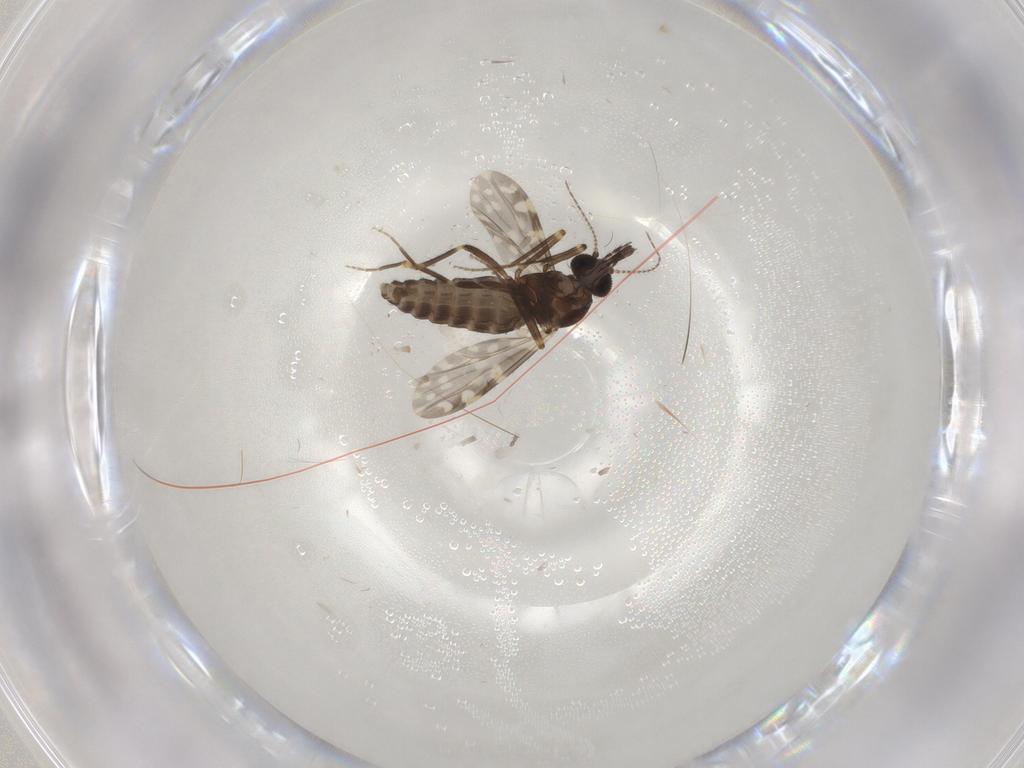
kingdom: Animalia
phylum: Arthropoda
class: Insecta
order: Diptera
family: Ceratopogonidae
